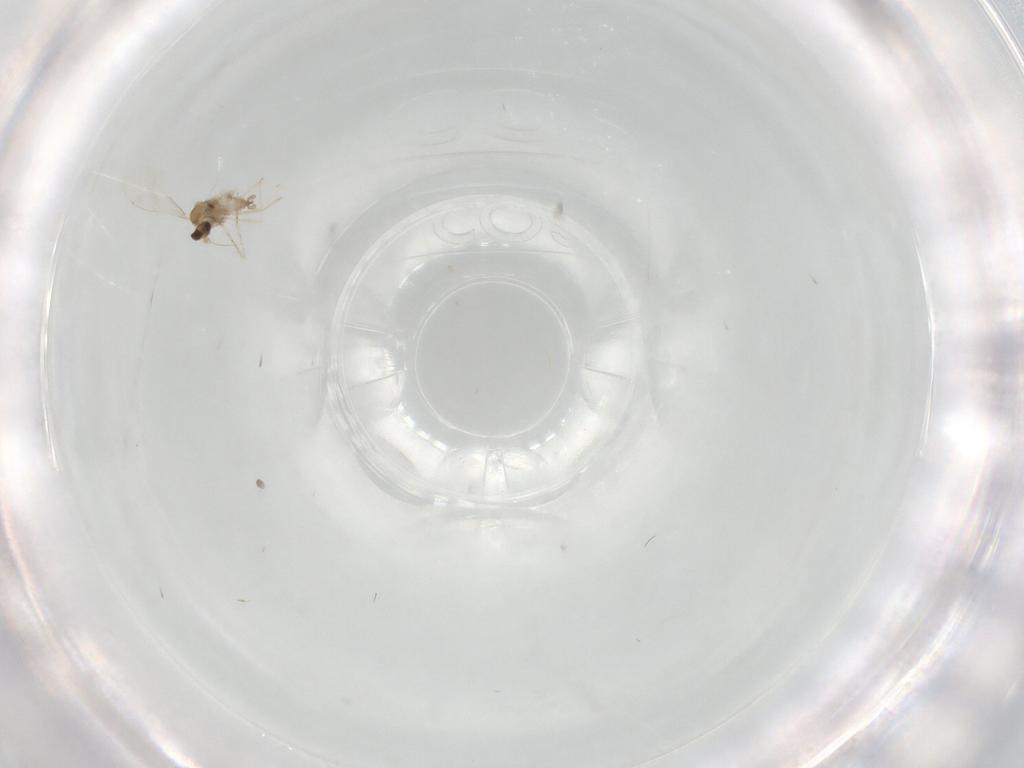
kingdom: Animalia
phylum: Arthropoda
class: Insecta
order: Diptera
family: Cecidomyiidae
